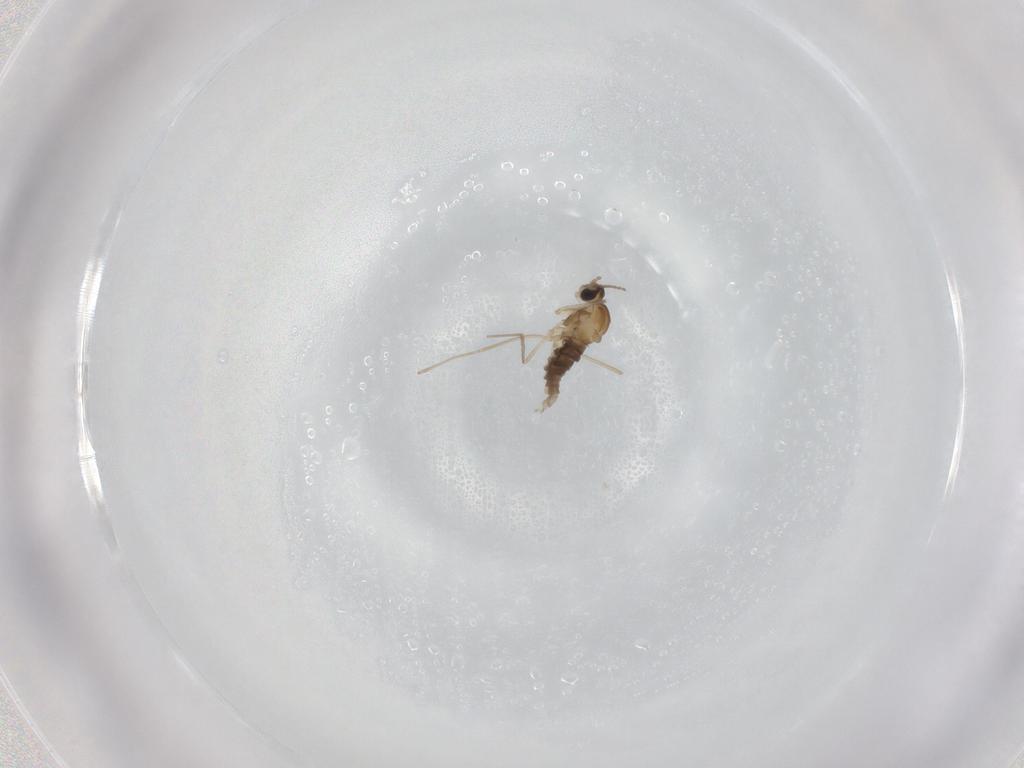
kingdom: Animalia
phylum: Arthropoda
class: Insecta
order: Diptera
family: Cecidomyiidae
